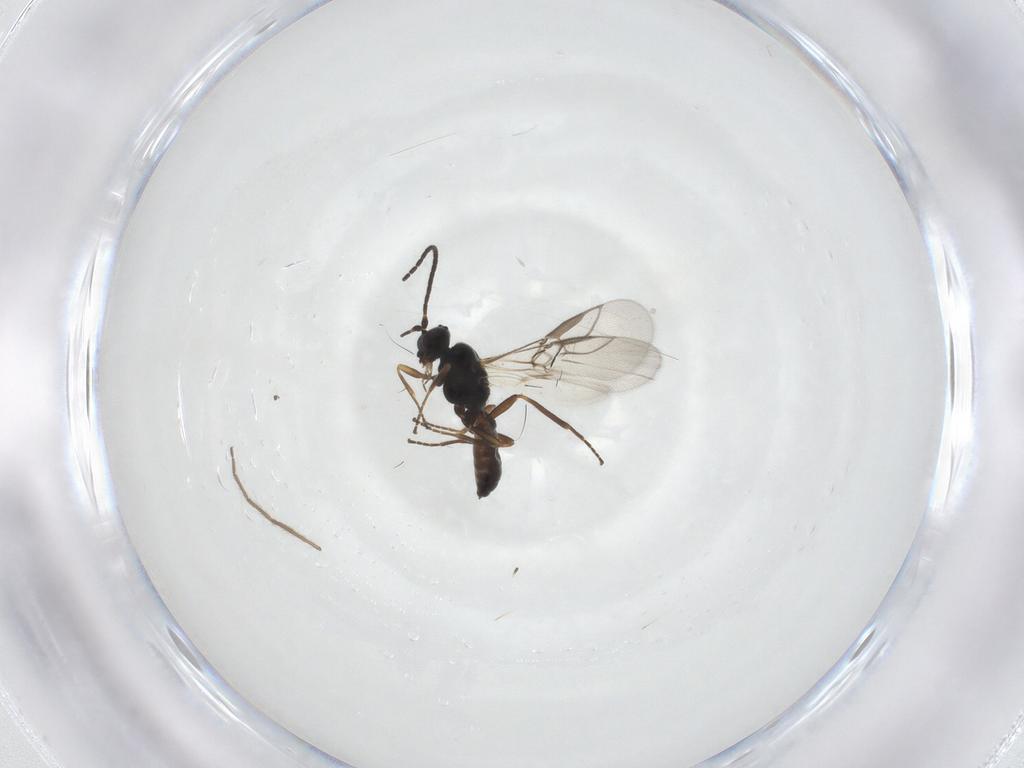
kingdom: Animalia
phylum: Arthropoda
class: Insecta
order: Hymenoptera
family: Braconidae
